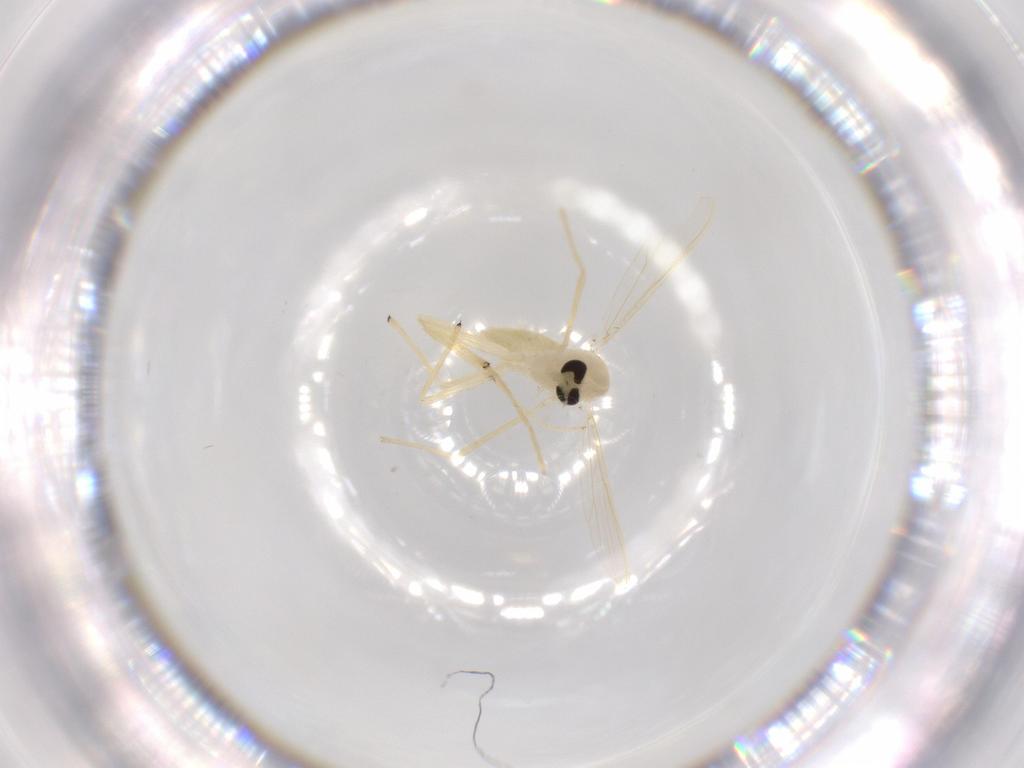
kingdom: Animalia
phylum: Arthropoda
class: Insecta
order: Diptera
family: Chironomidae
